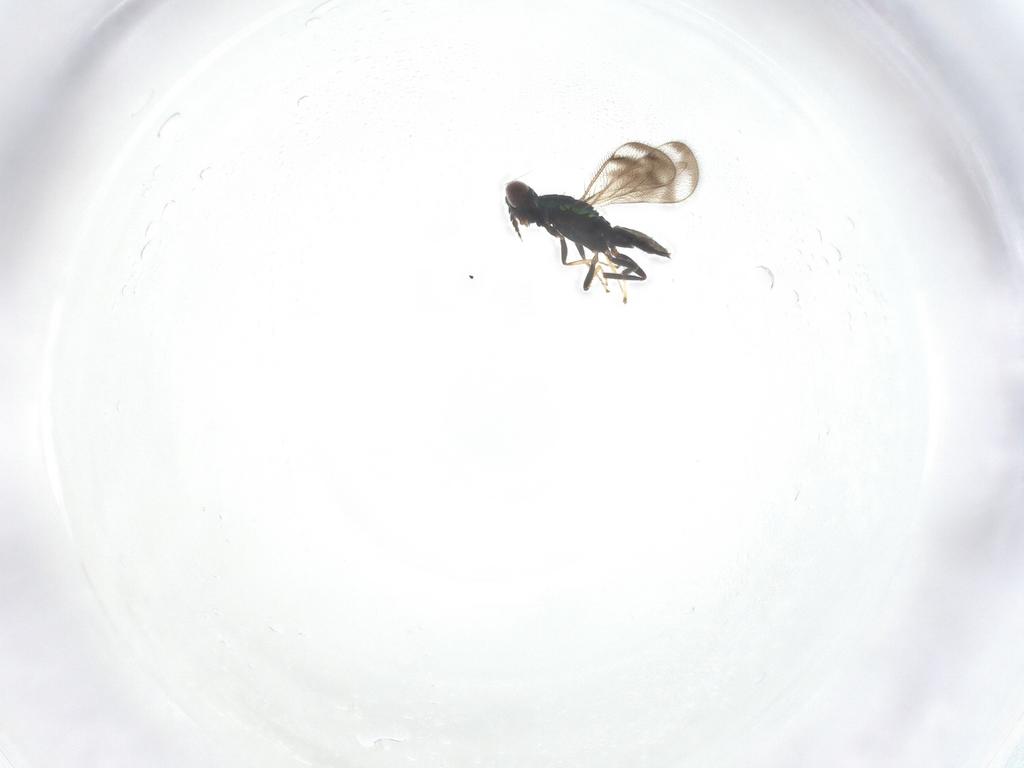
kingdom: Animalia
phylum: Arthropoda
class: Insecta
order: Hymenoptera
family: Eulophidae
